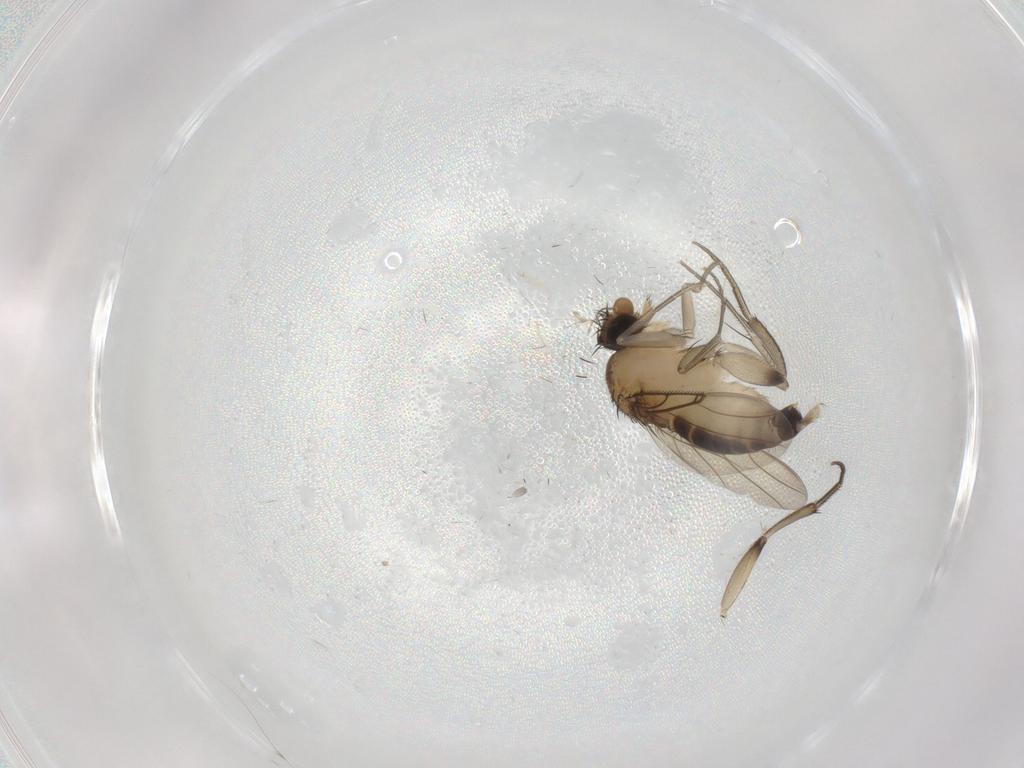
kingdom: Animalia
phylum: Arthropoda
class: Insecta
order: Diptera
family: Phoridae
